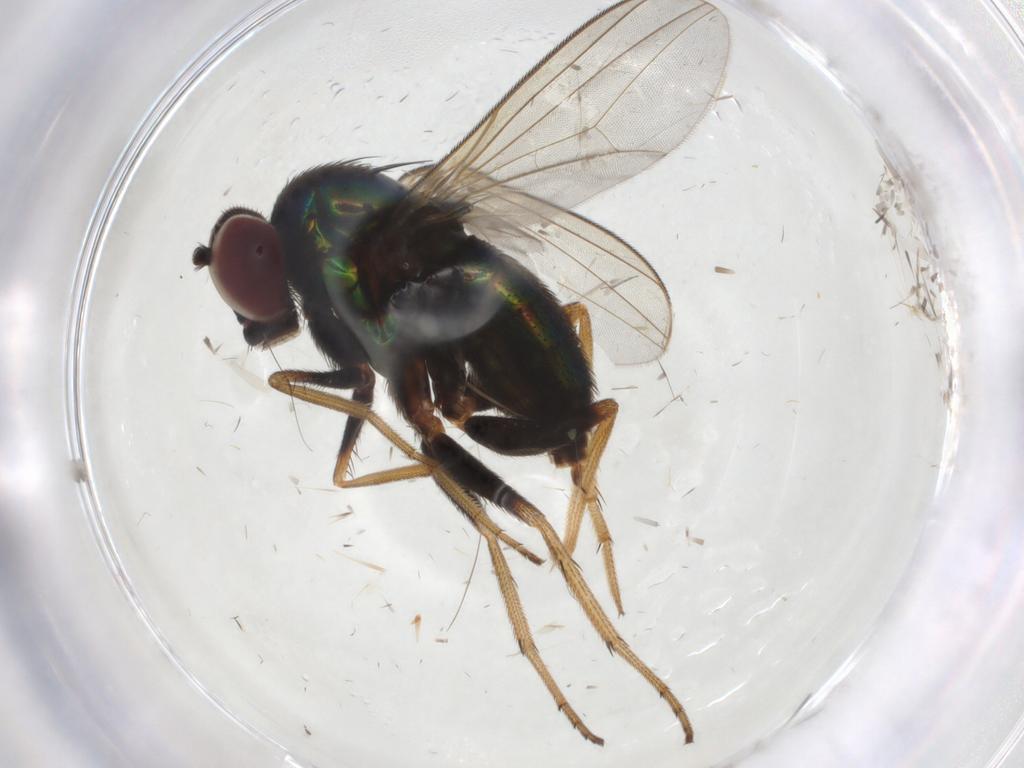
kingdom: Animalia
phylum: Arthropoda
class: Insecta
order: Diptera
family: Dolichopodidae
